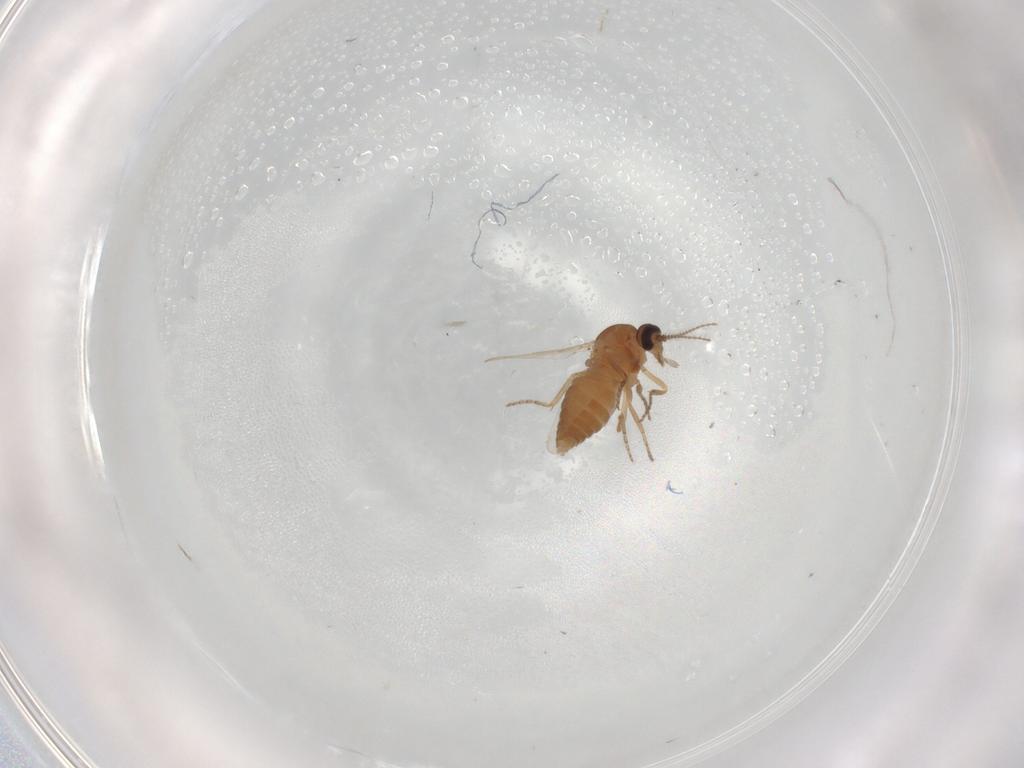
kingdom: Animalia
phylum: Arthropoda
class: Insecta
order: Diptera
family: Ceratopogonidae
